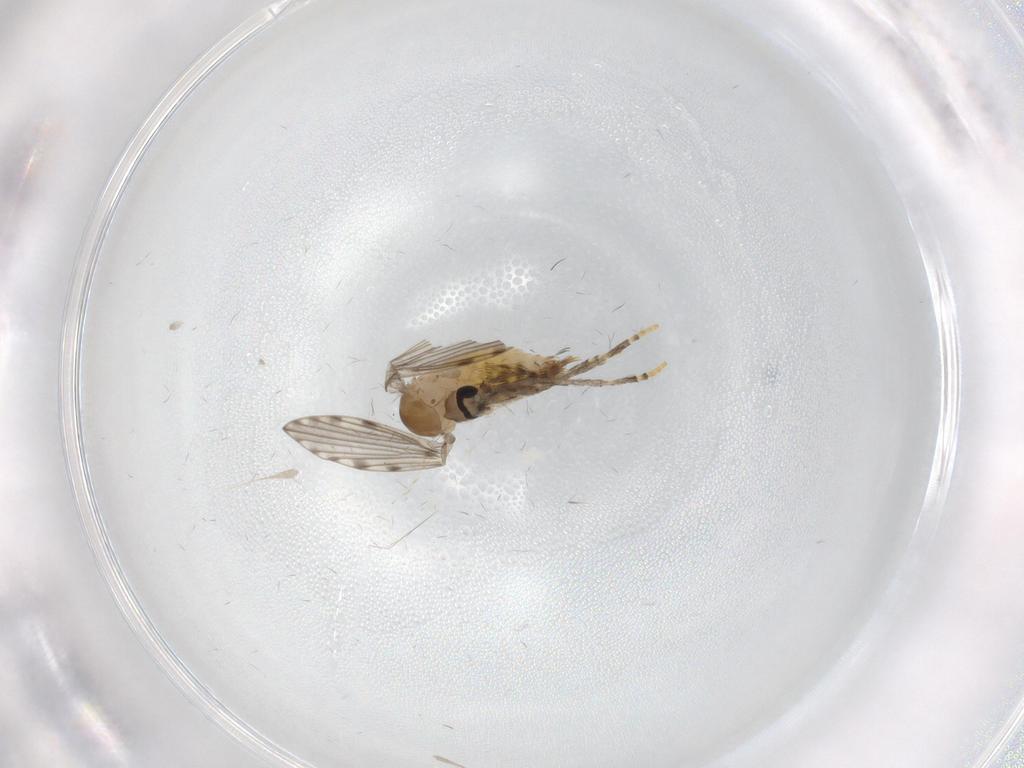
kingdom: Animalia
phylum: Arthropoda
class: Insecta
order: Diptera
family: Psychodidae
